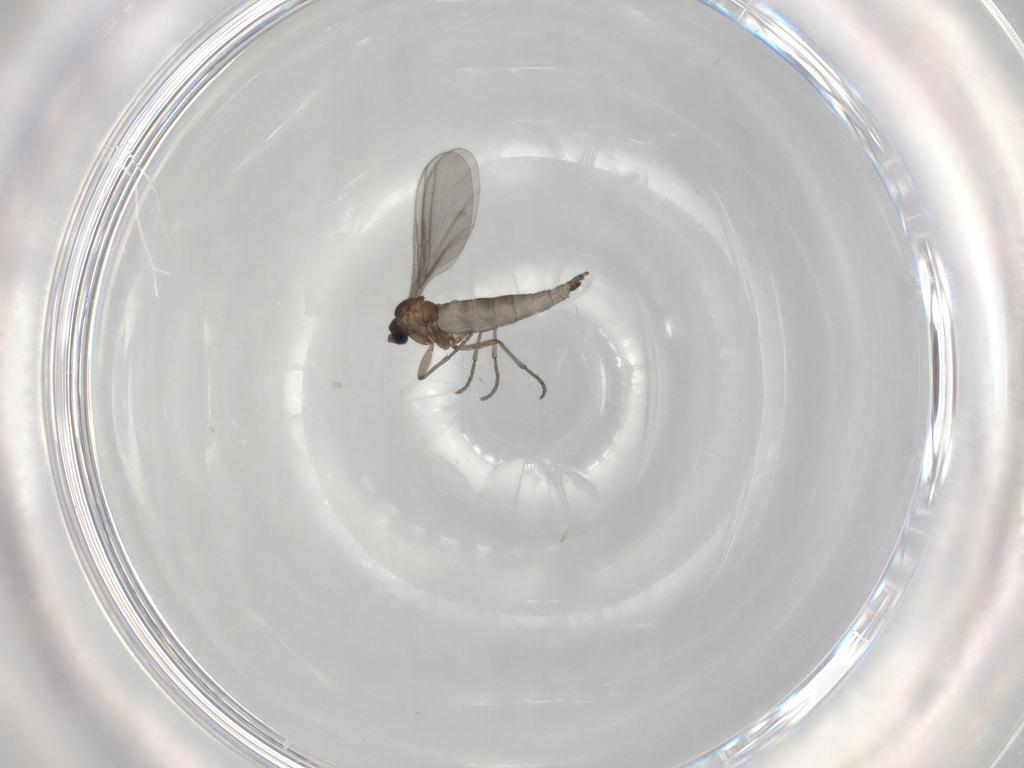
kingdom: Animalia
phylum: Arthropoda
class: Insecta
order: Diptera
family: Sciaridae
